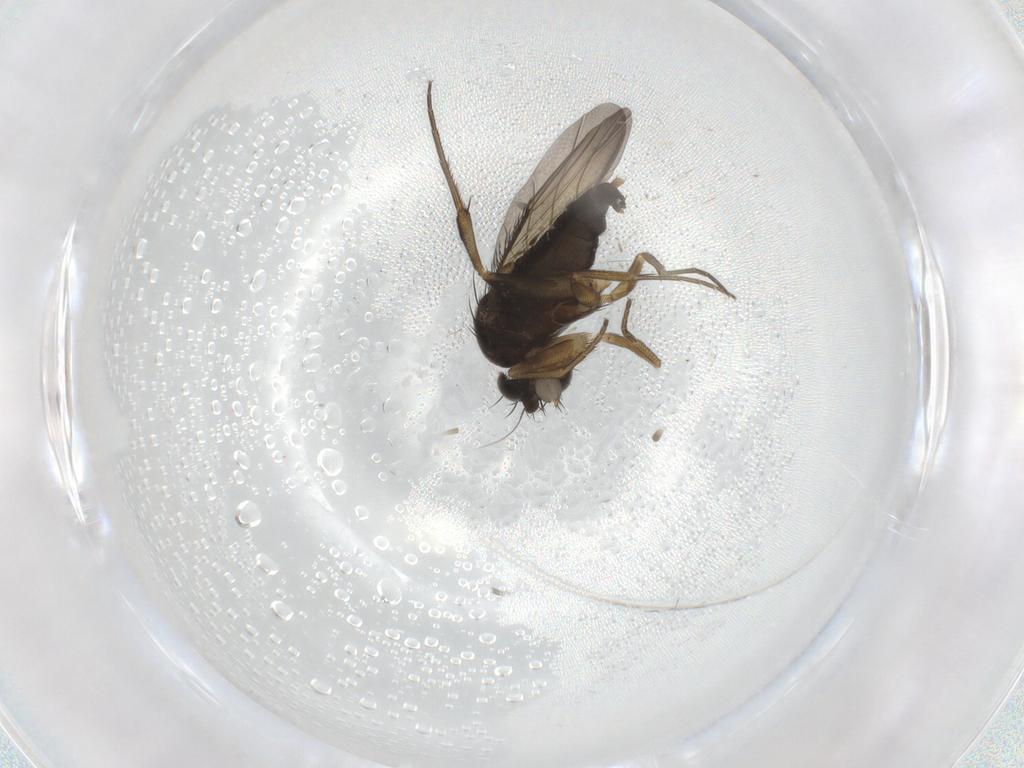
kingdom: Animalia
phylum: Arthropoda
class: Insecta
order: Diptera
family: Phoridae
